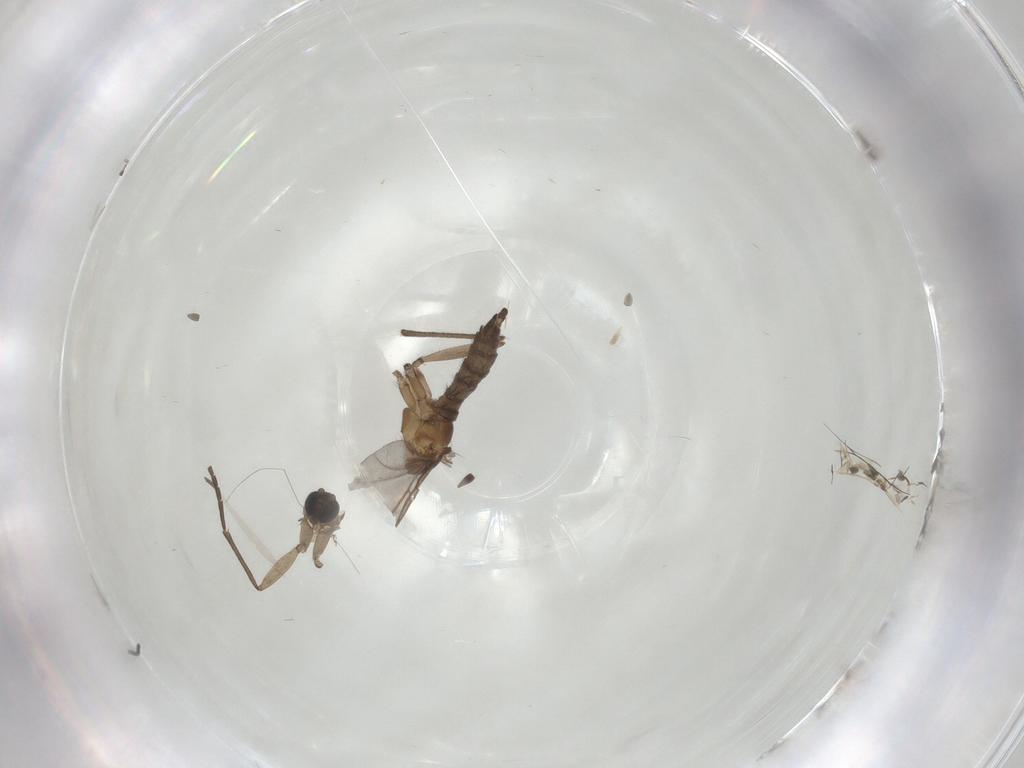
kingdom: Animalia
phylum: Arthropoda
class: Insecta
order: Diptera
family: Sciaridae
